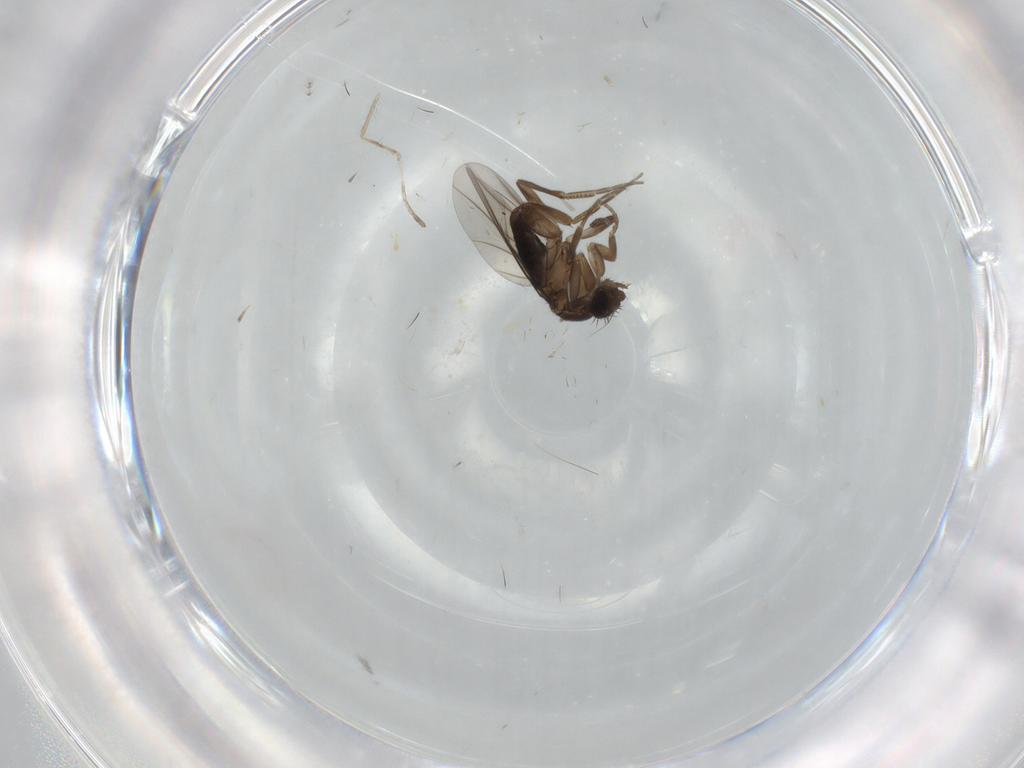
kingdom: Animalia
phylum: Arthropoda
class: Insecta
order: Diptera
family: Phoridae
